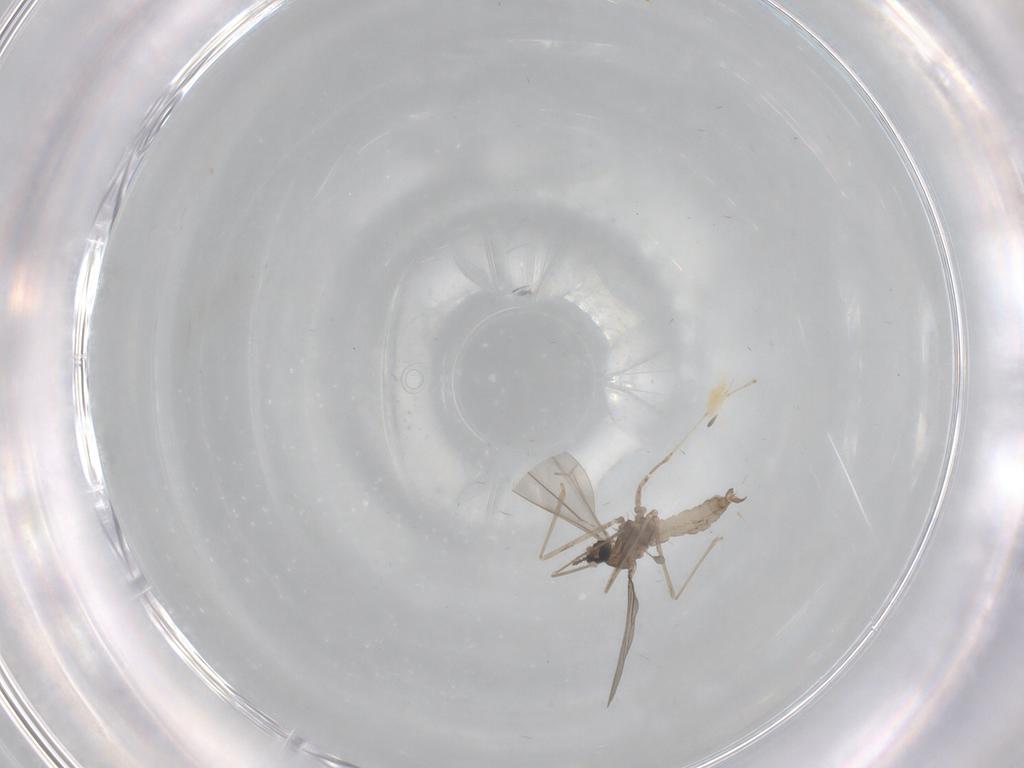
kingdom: Animalia
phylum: Arthropoda
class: Insecta
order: Diptera
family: Cecidomyiidae
